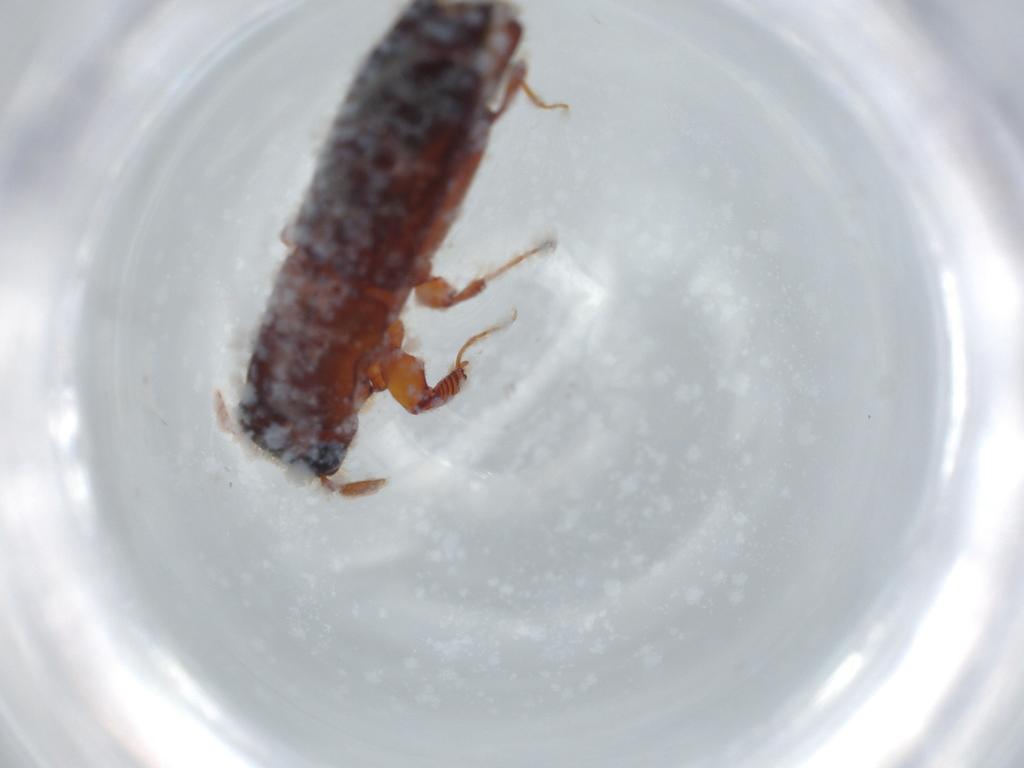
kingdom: Animalia
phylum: Arthropoda
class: Insecta
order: Coleoptera
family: Curculionidae
